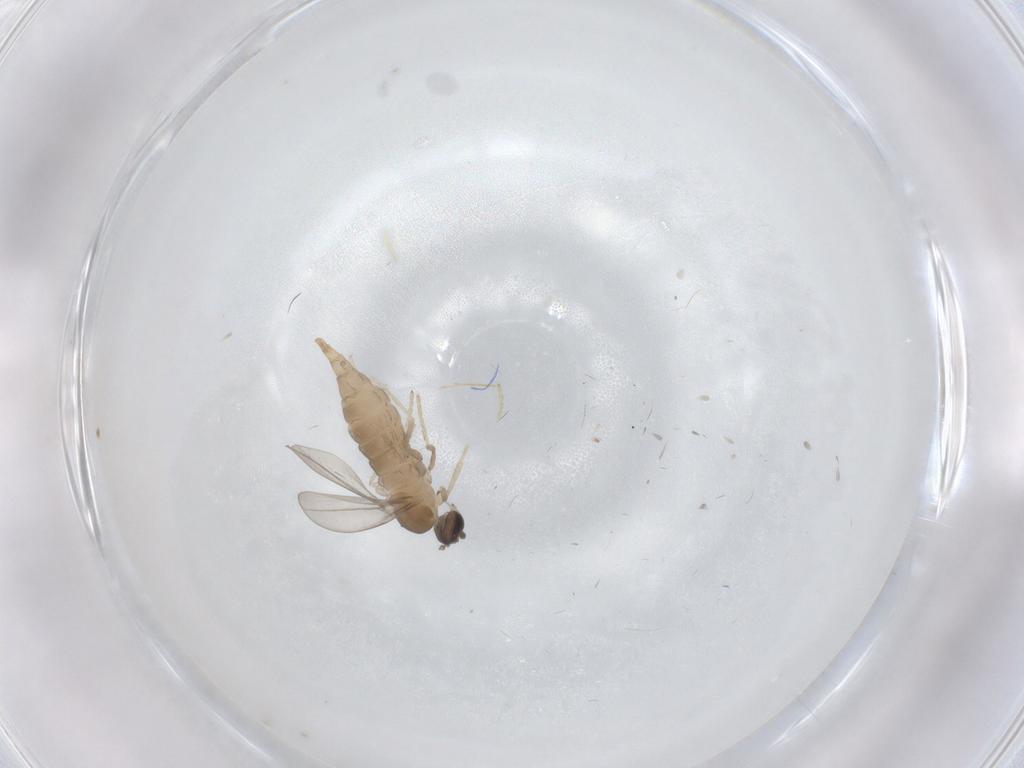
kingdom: Animalia
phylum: Arthropoda
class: Insecta
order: Diptera
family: Cecidomyiidae
